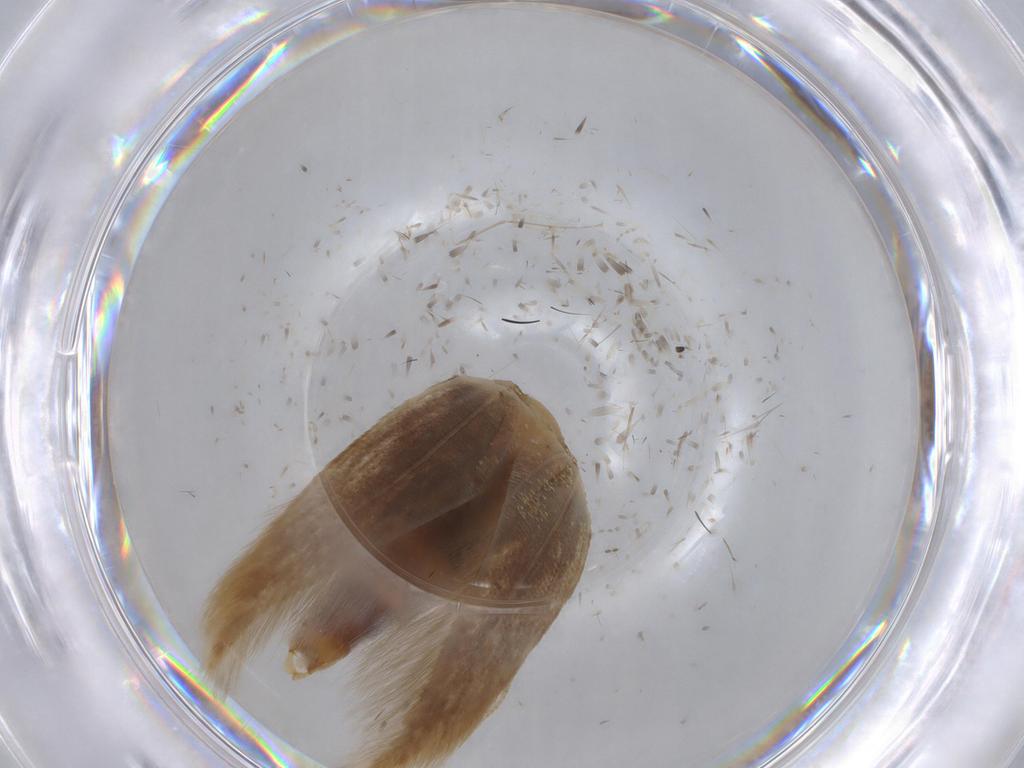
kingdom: Animalia
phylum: Arthropoda
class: Insecta
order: Lepidoptera
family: Tineidae
